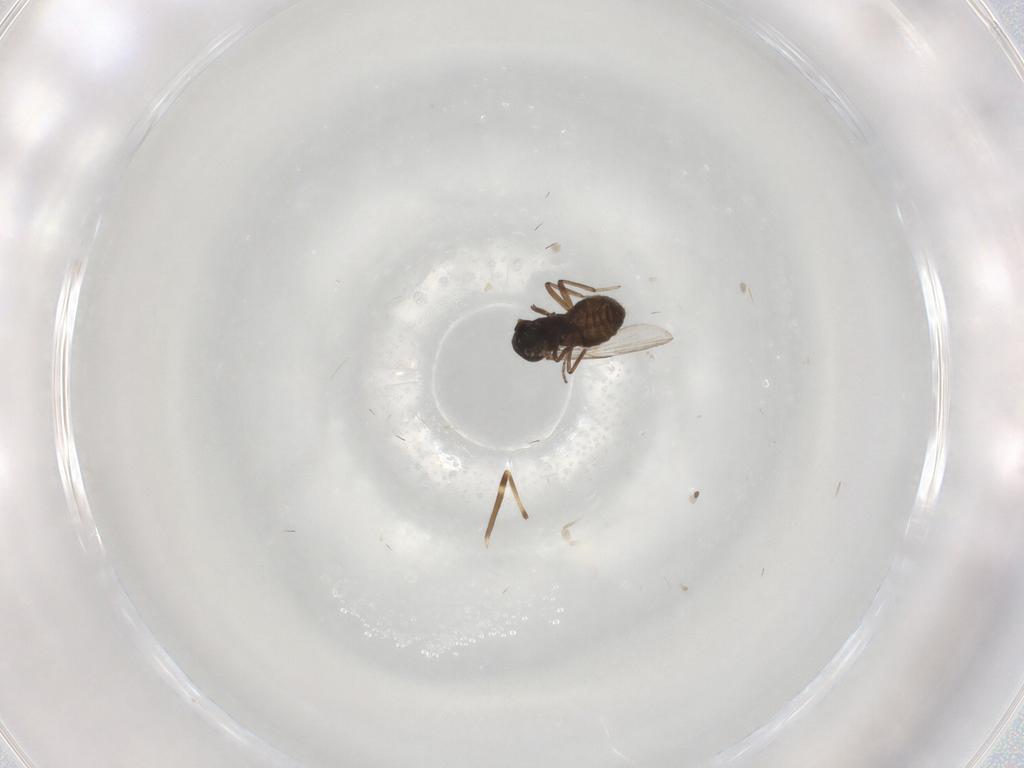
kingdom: Animalia
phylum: Arthropoda
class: Insecta
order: Diptera
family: Ceratopogonidae
